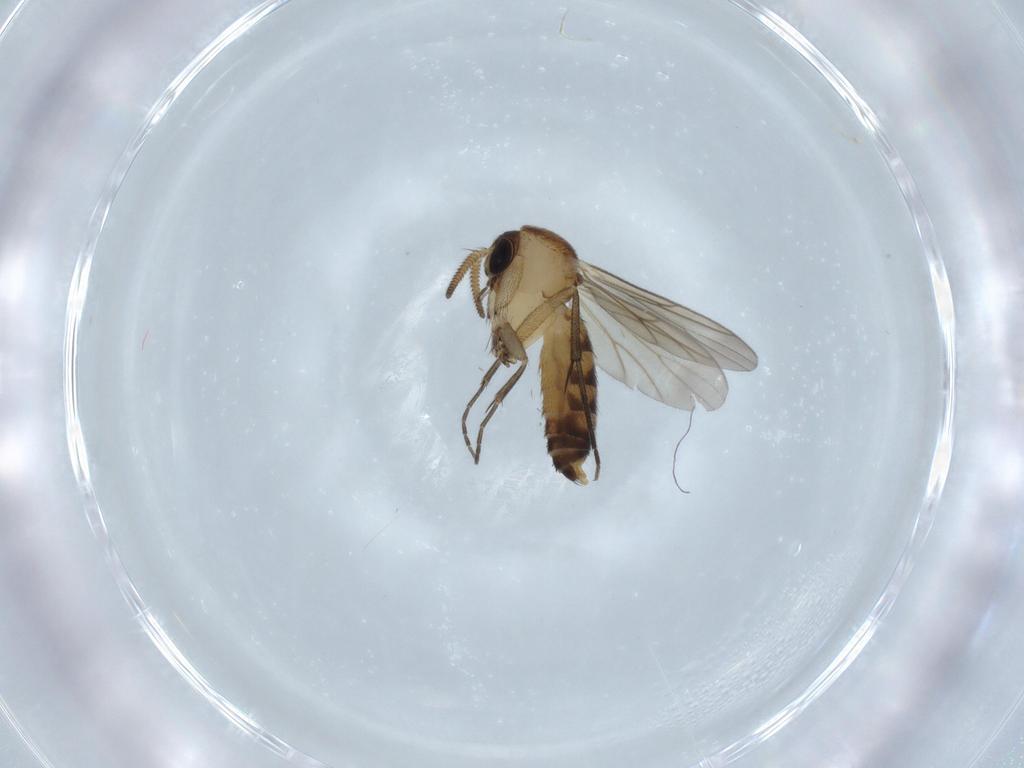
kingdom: Animalia
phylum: Arthropoda
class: Insecta
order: Diptera
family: Mycetophilidae
